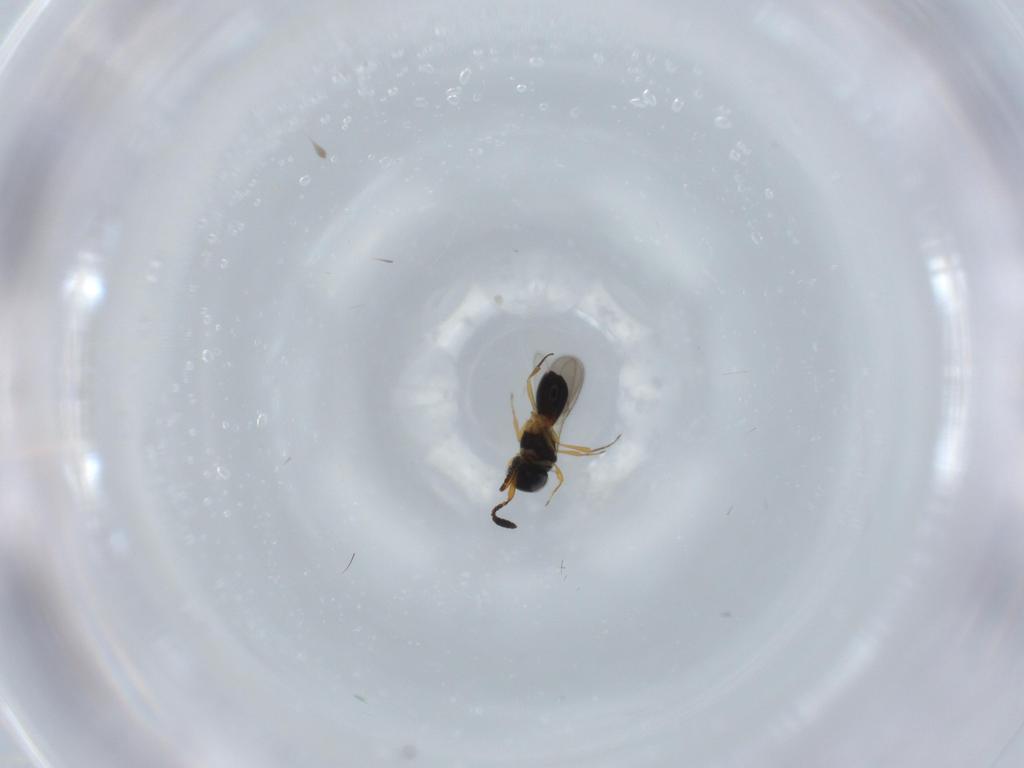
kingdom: Animalia
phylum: Arthropoda
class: Insecta
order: Hymenoptera
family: Scelionidae
